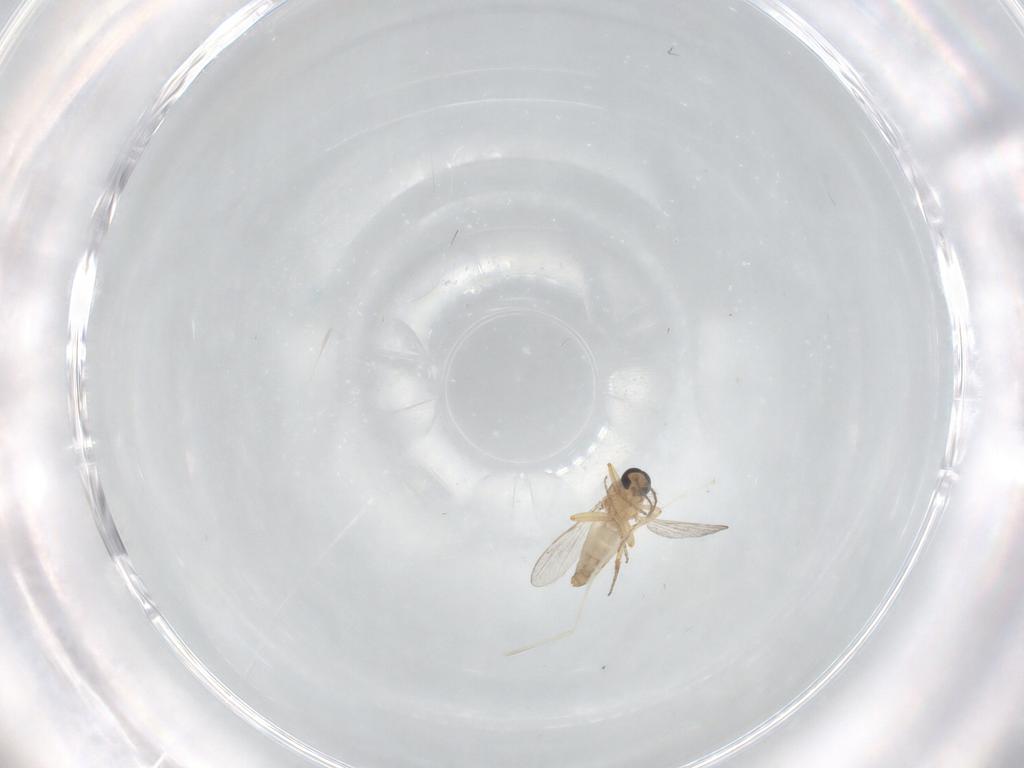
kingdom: Animalia
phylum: Arthropoda
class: Insecta
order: Diptera
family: Ceratopogonidae
